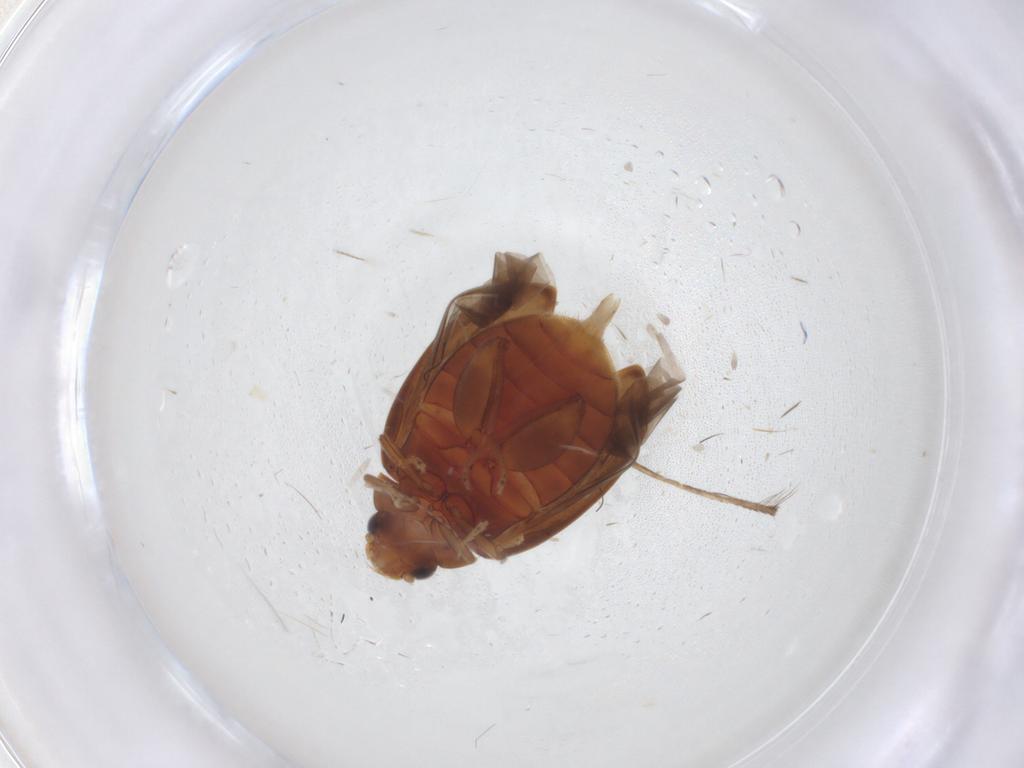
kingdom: Animalia
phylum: Arthropoda
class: Insecta
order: Coleoptera
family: Scirtidae
